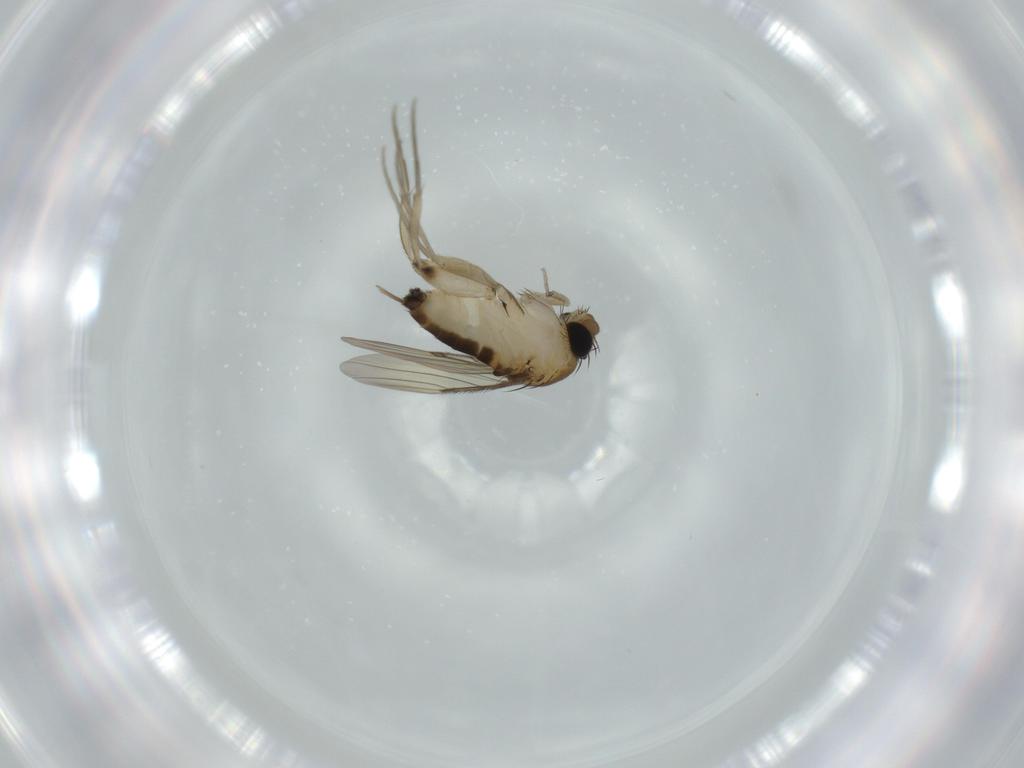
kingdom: Animalia
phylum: Arthropoda
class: Insecta
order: Diptera
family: Phoridae
